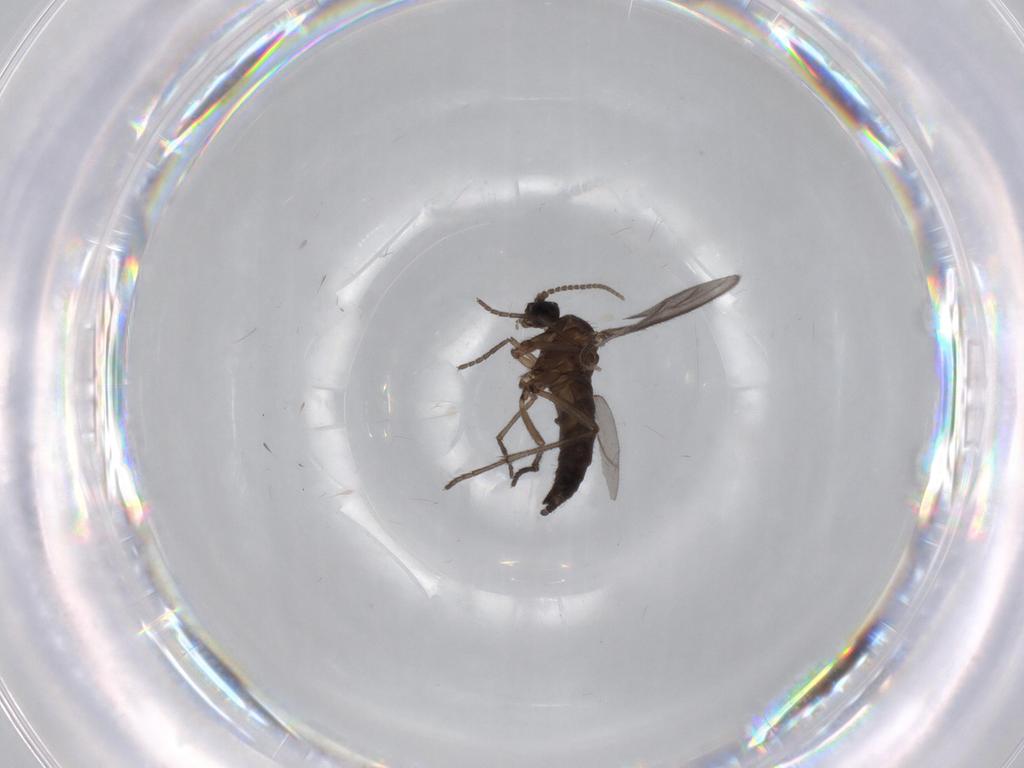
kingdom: Animalia
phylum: Arthropoda
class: Insecta
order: Diptera
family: Sciaridae
